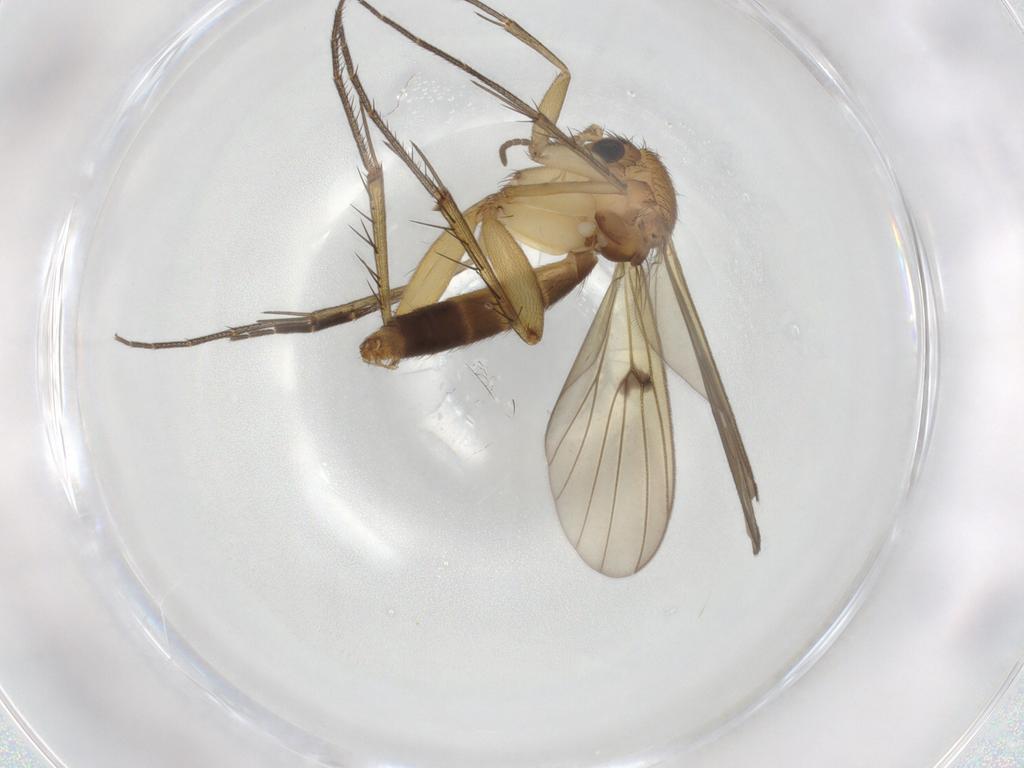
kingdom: Animalia
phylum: Arthropoda
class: Insecta
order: Diptera
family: Mycetophilidae
